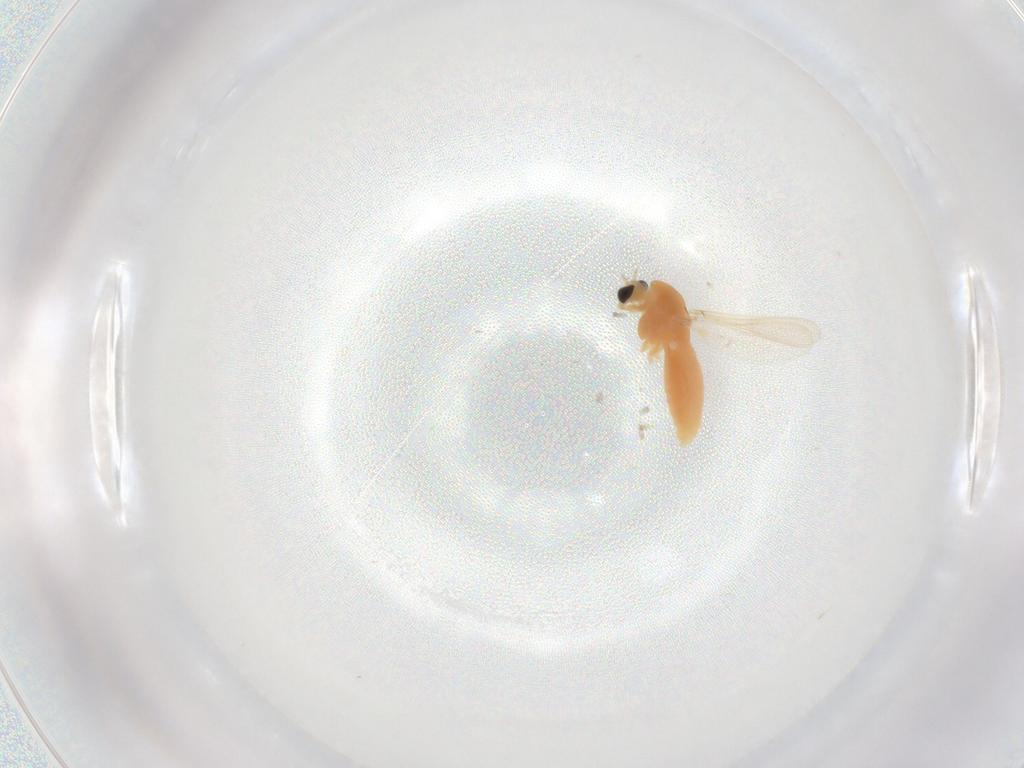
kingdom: Animalia
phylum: Arthropoda
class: Insecta
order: Diptera
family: Chironomidae
